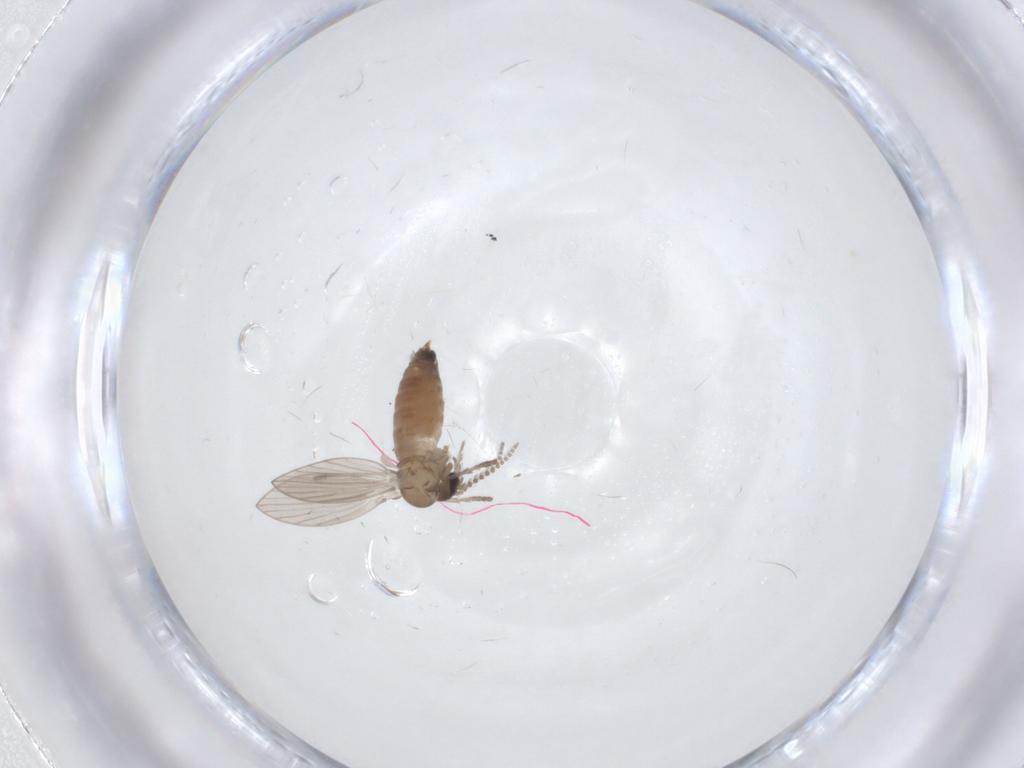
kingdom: Animalia
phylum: Arthropoda
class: Insecta
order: Diptera
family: Psychodidae
